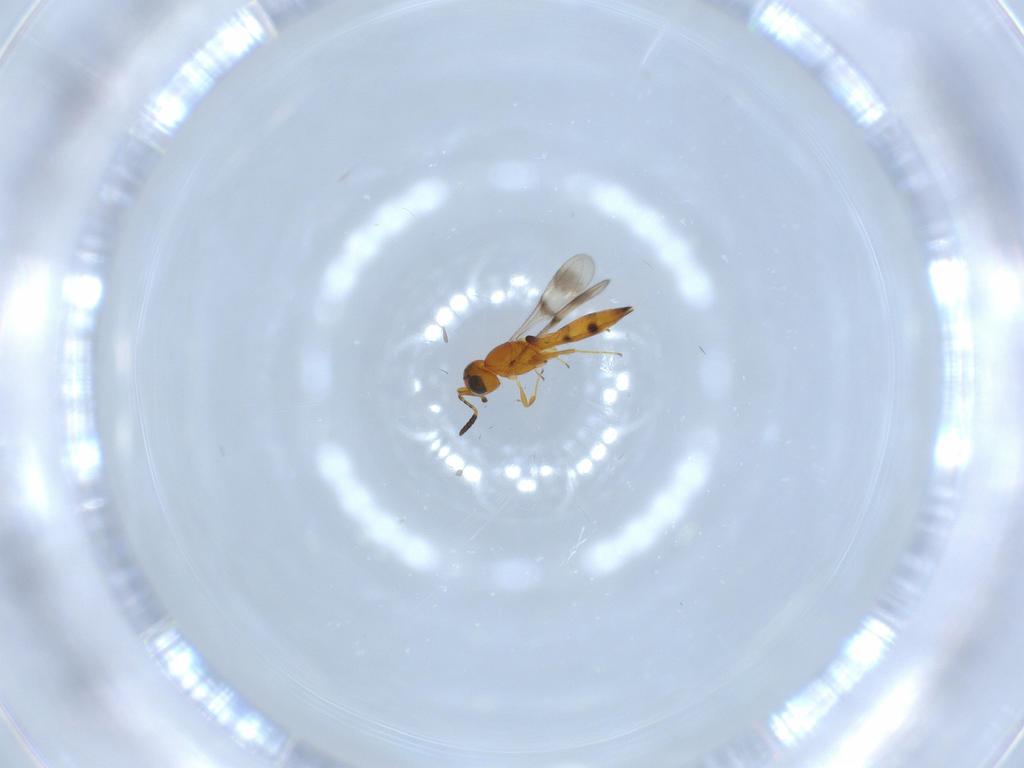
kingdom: Animalia
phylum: Arthropoda
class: Insecta
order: Hymenoptera
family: Scelionidae
